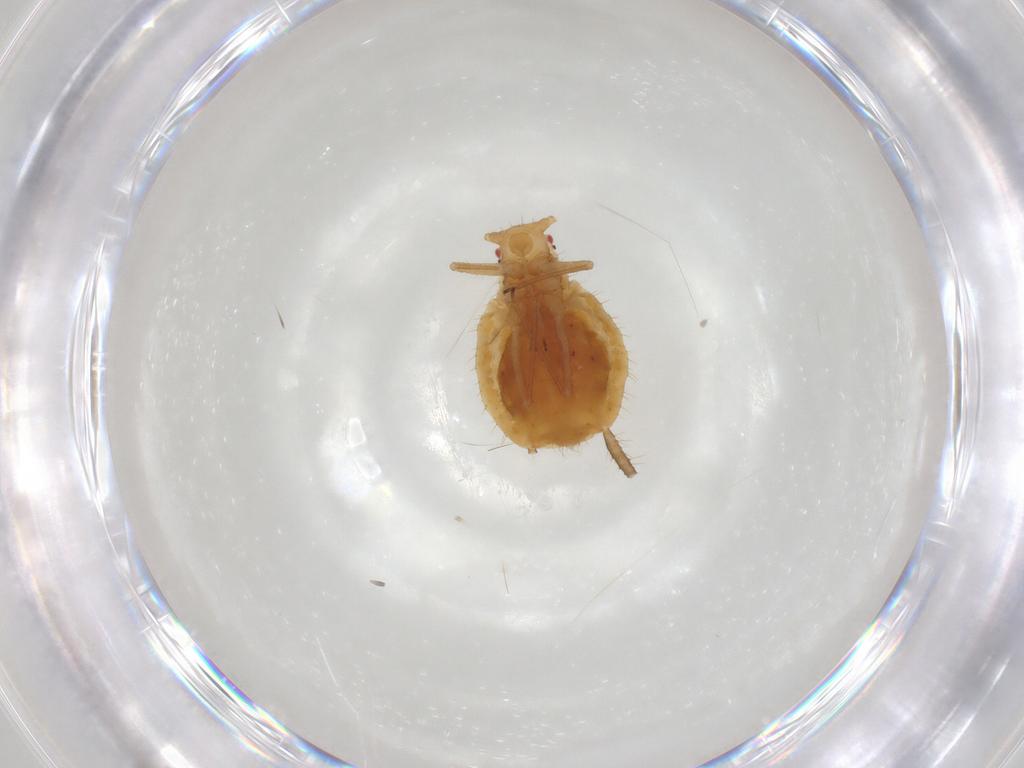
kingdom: Animalia
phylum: Arthropoda
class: Insecta
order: Hemiptera
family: Aphididae
